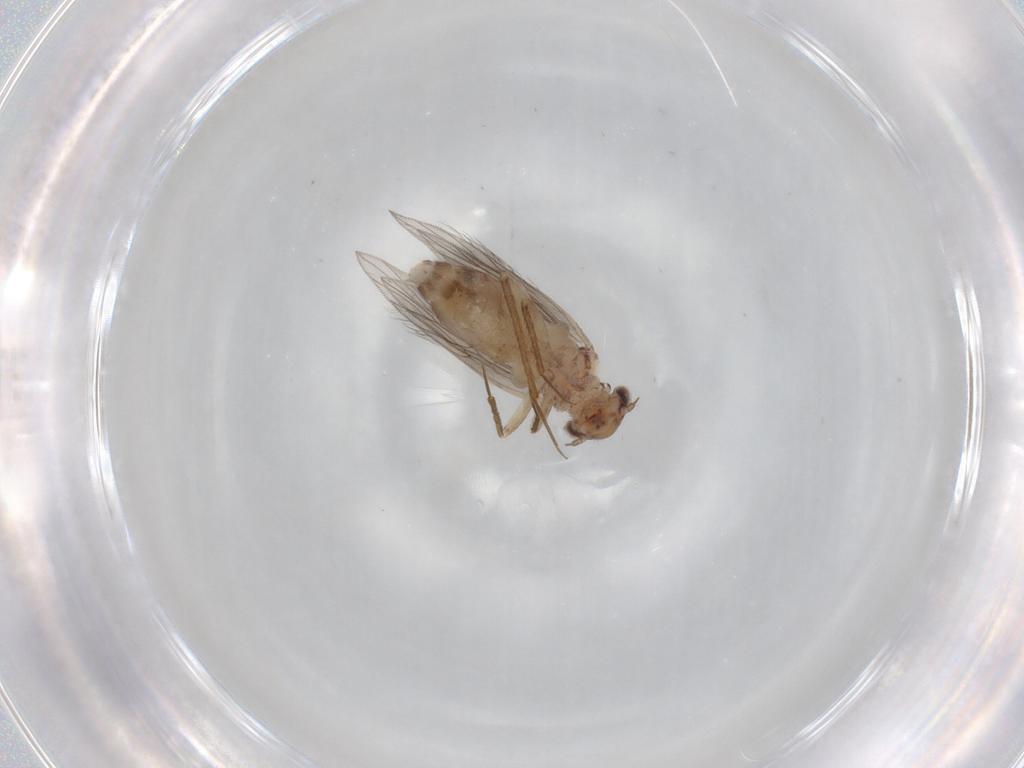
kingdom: Animalia
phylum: Arthropoda
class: Insecta
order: Psocodea
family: Lepidopsocidae
